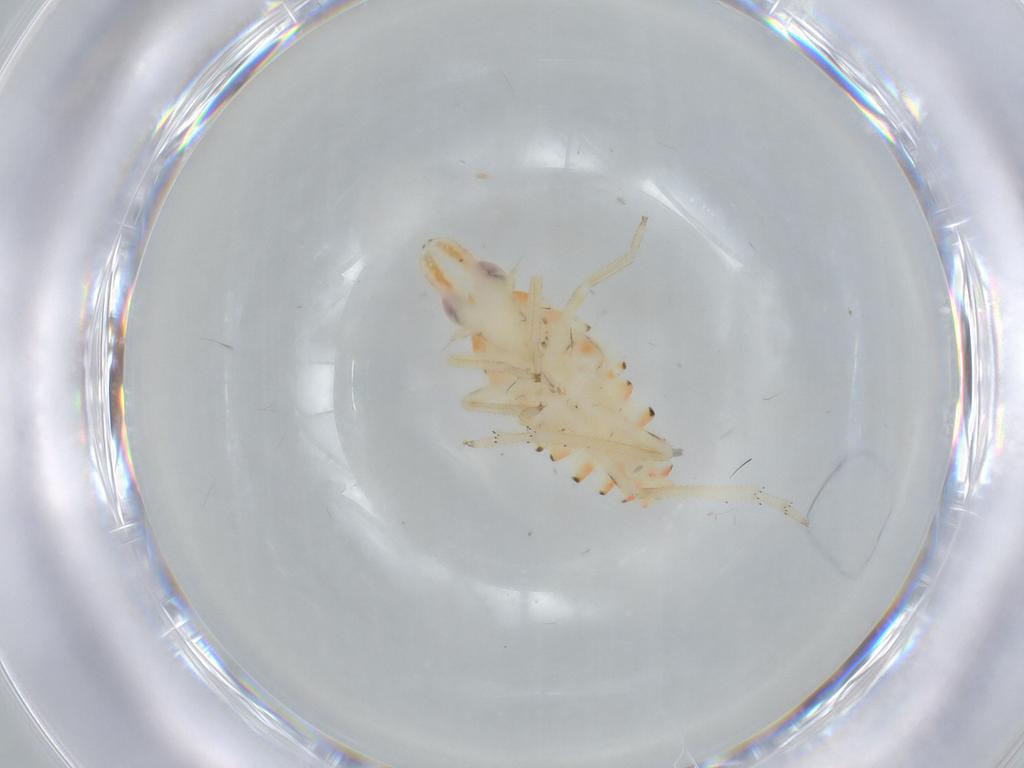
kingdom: Animalia
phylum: Arthropoda
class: Insecta
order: Hemiptera
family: Tropiduchidae
